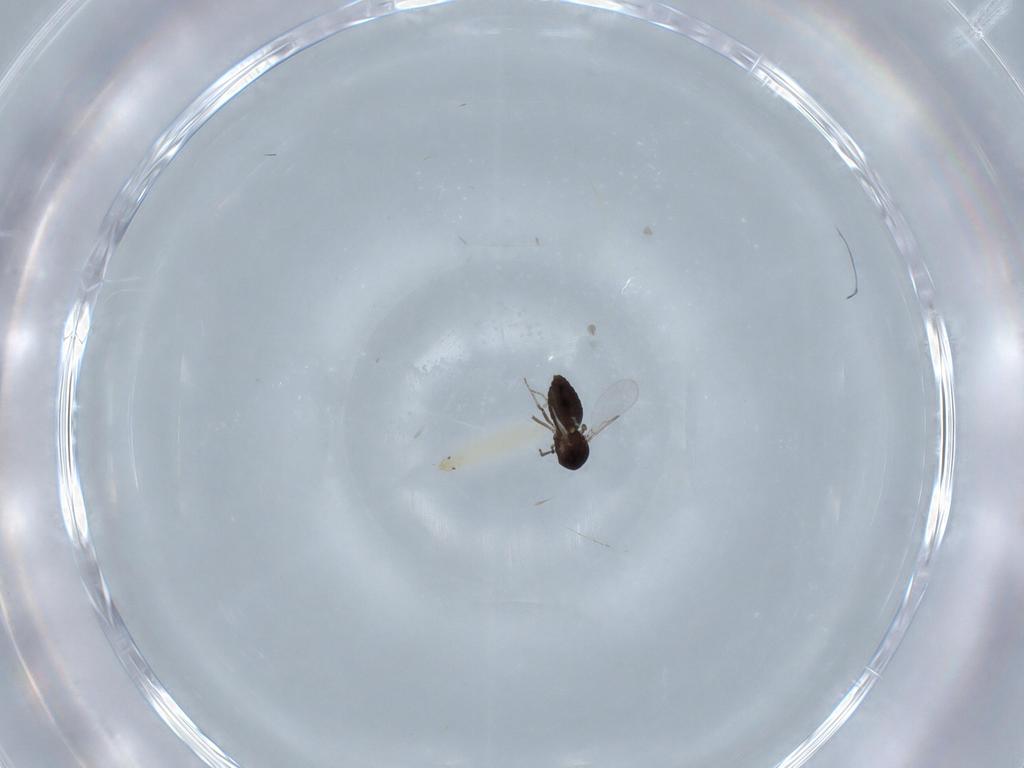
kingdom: Animalia
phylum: Arthropoda
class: Insecta
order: Diptera
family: Ceratopogonidae
